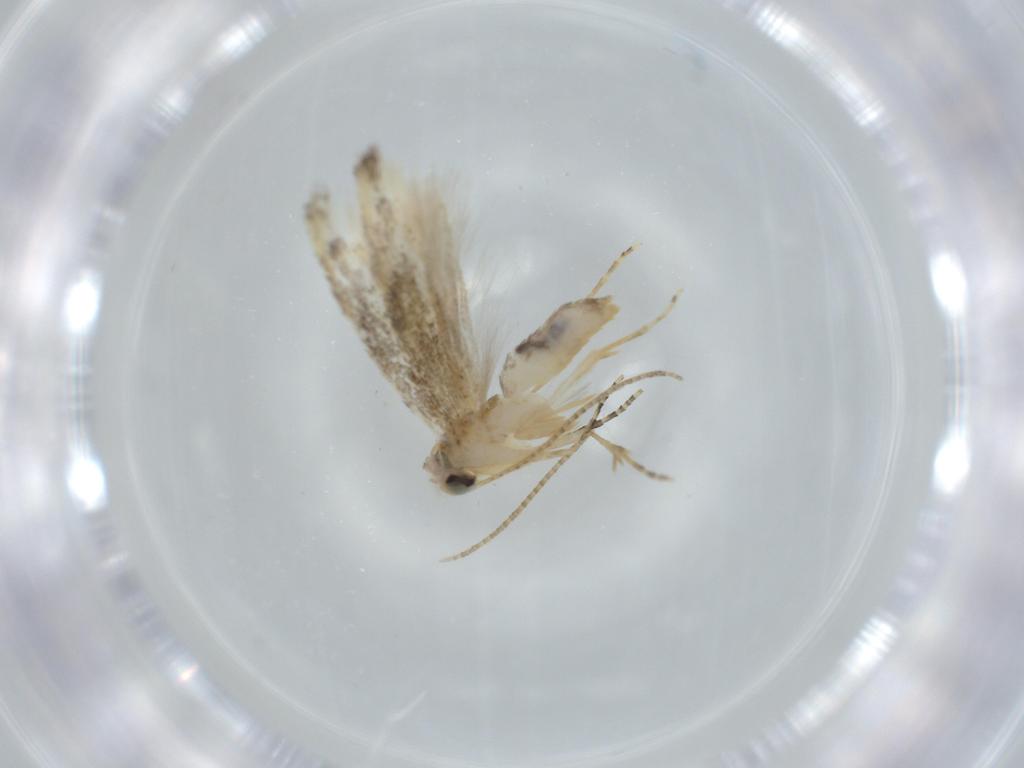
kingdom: Animalia
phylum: Arthropoda
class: Insecta
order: Lepidoptera
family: Bucculatricidae
